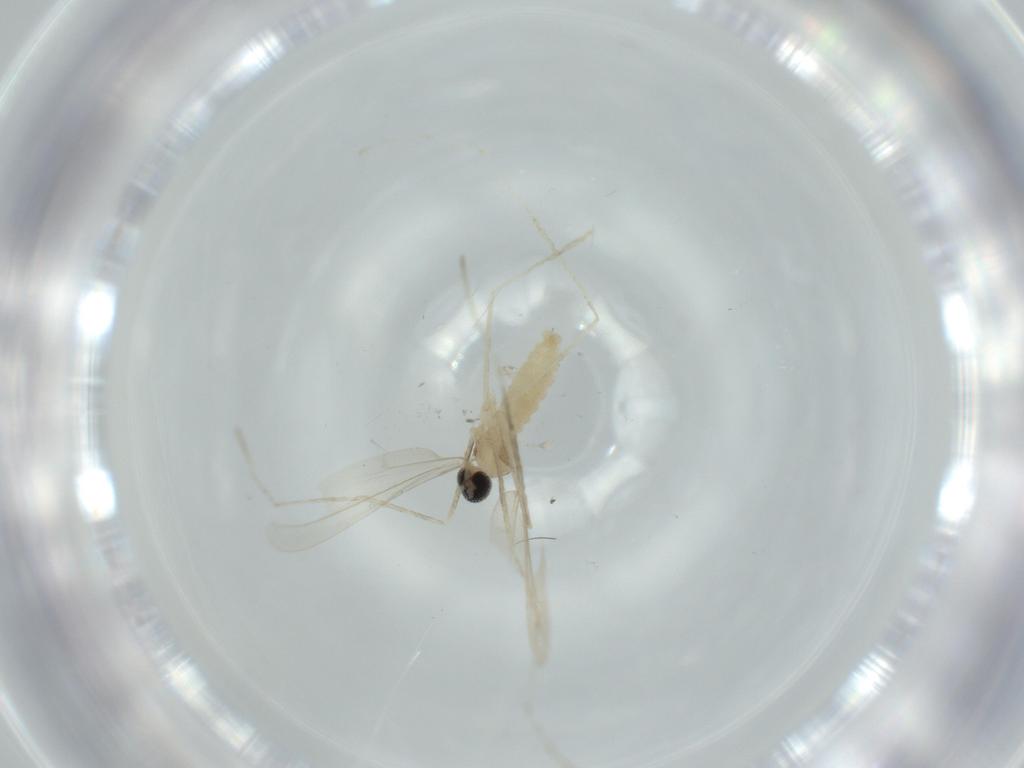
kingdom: Animalia
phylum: Arthropoda
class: Insecta
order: Diptera
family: Cecidomyiidae
